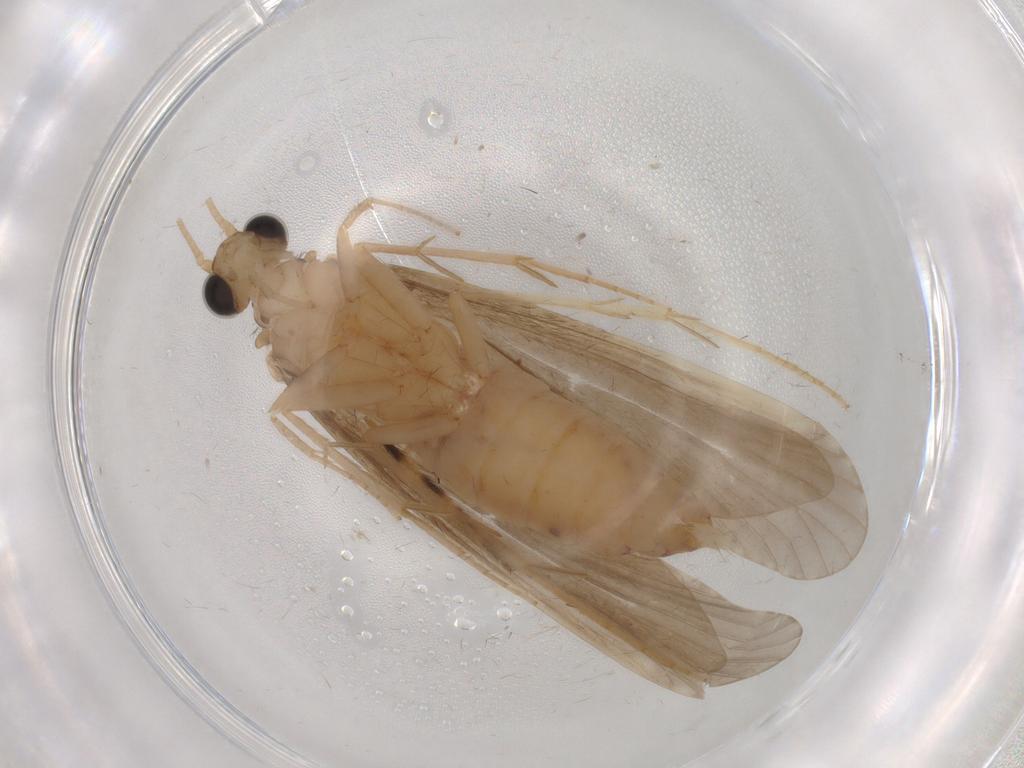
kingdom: Animalia
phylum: Arthropoda
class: Insecta
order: Trichoptera
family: Ecnomidae
